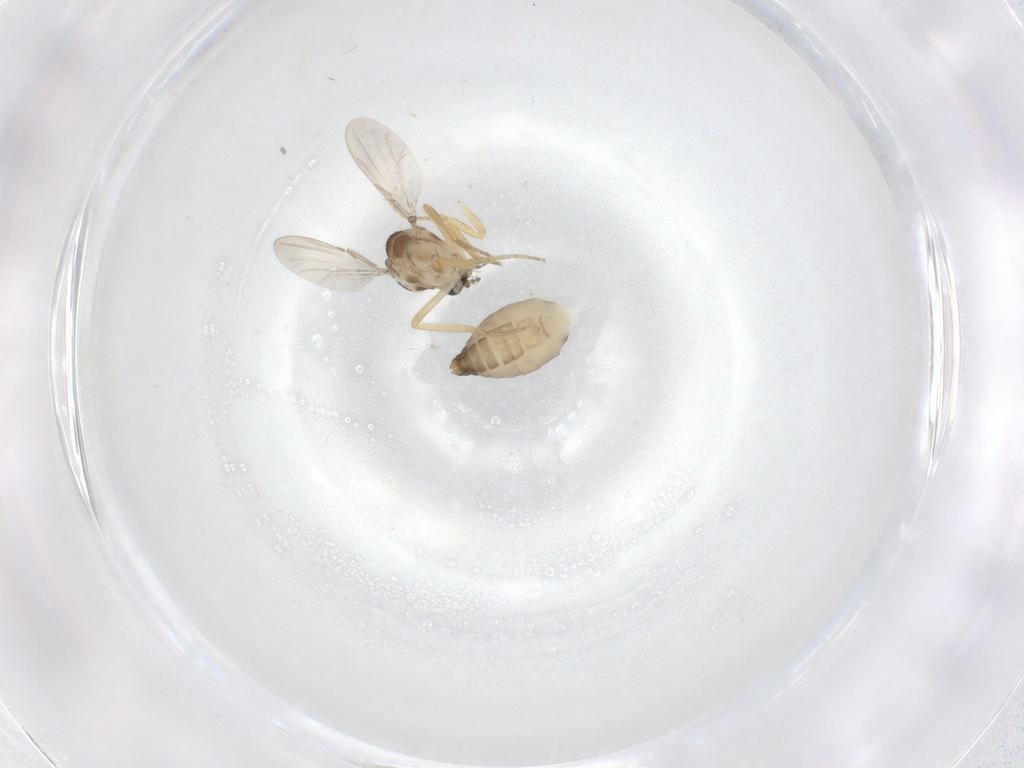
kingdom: Animalia
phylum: Arthropoda
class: Insecta
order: Diptera
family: Ceratopogonidae
